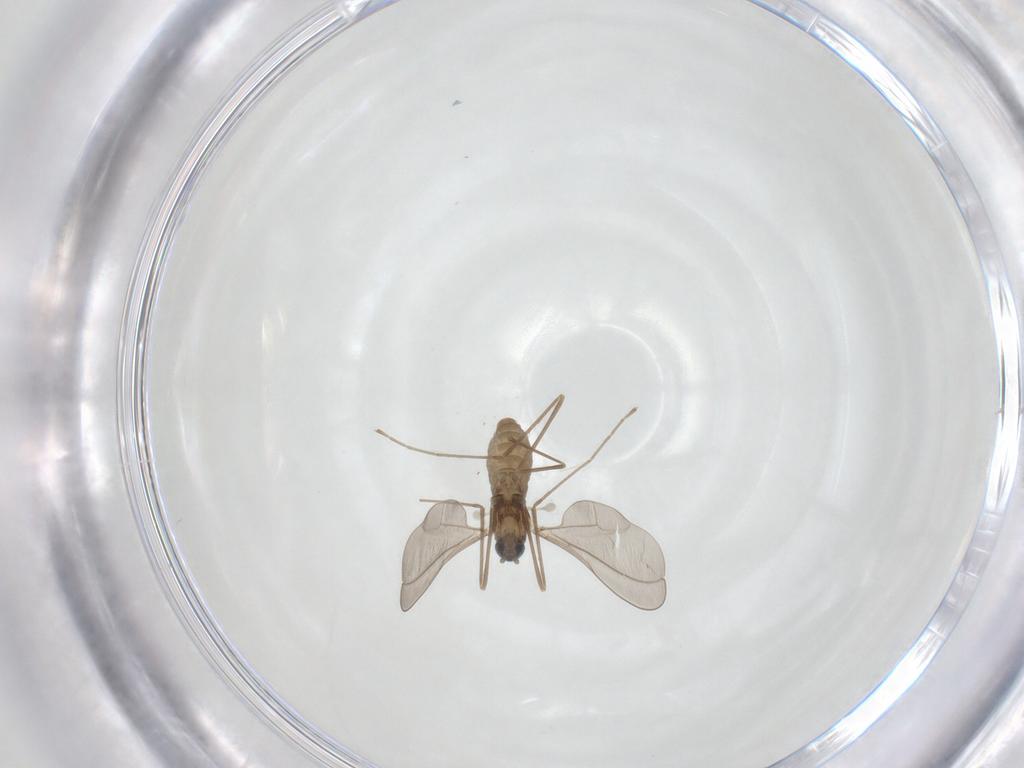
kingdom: Animalia
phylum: Arthropoda
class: Insecta
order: Diptera
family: Cecidomyiidae
